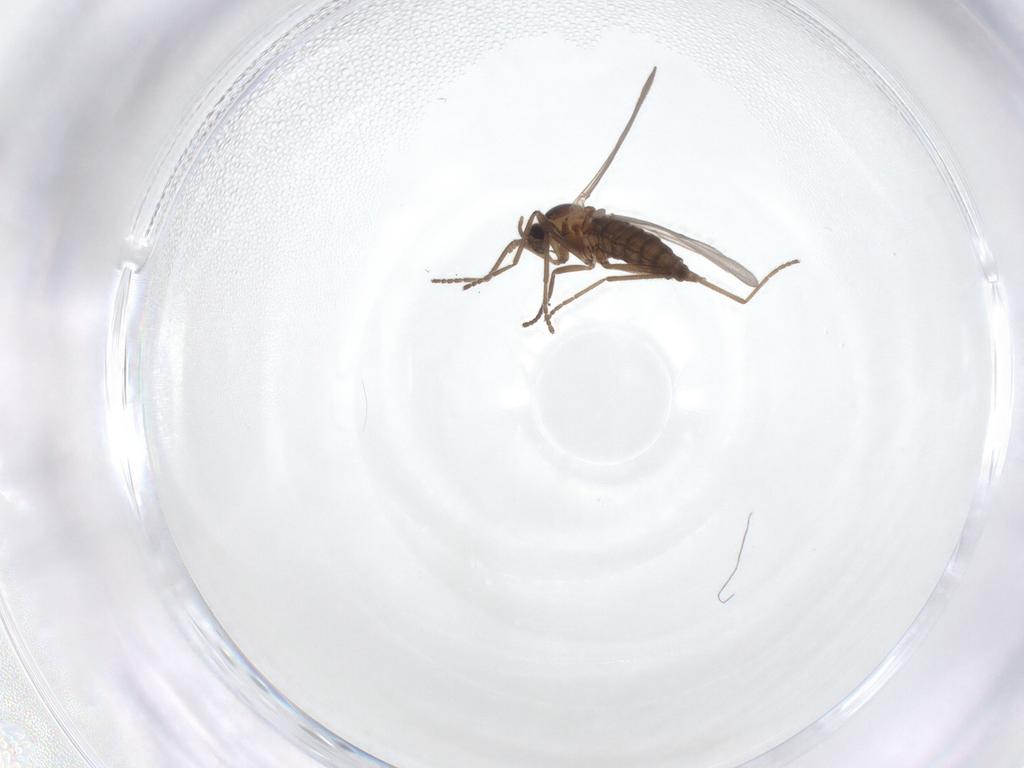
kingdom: Animalia
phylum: Arthropoda
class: Insecta
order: Diptera
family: Cecidomyiidae
